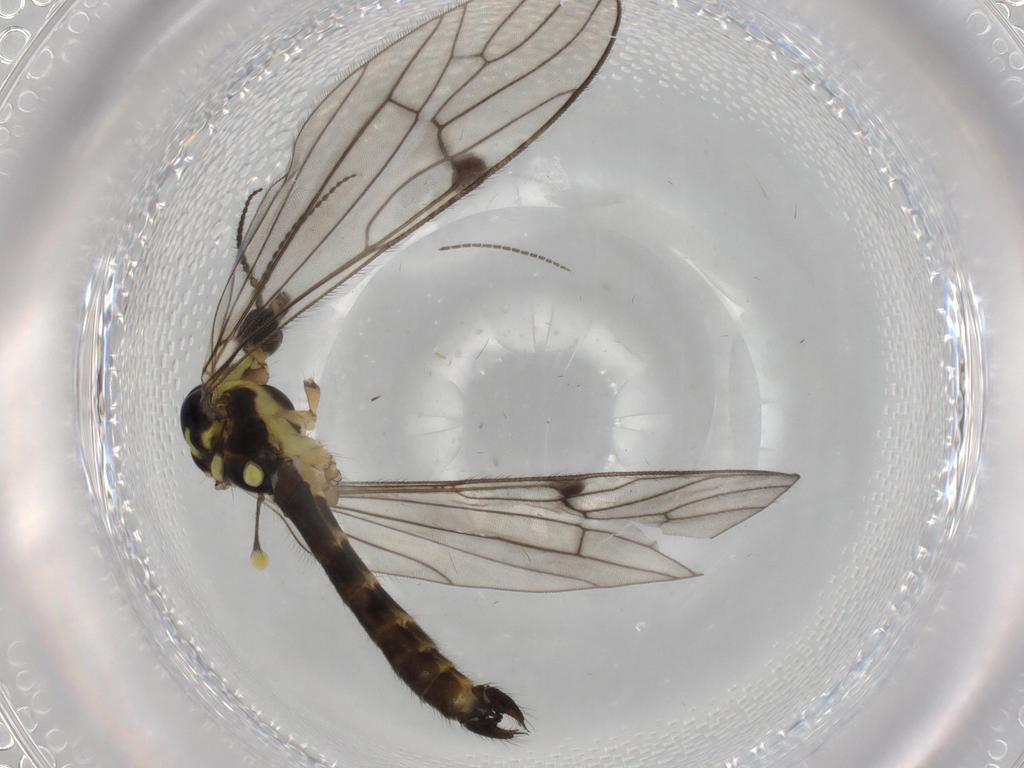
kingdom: Animalia
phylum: Arthropoda
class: Insecta
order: Diptera
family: Limoniidae
